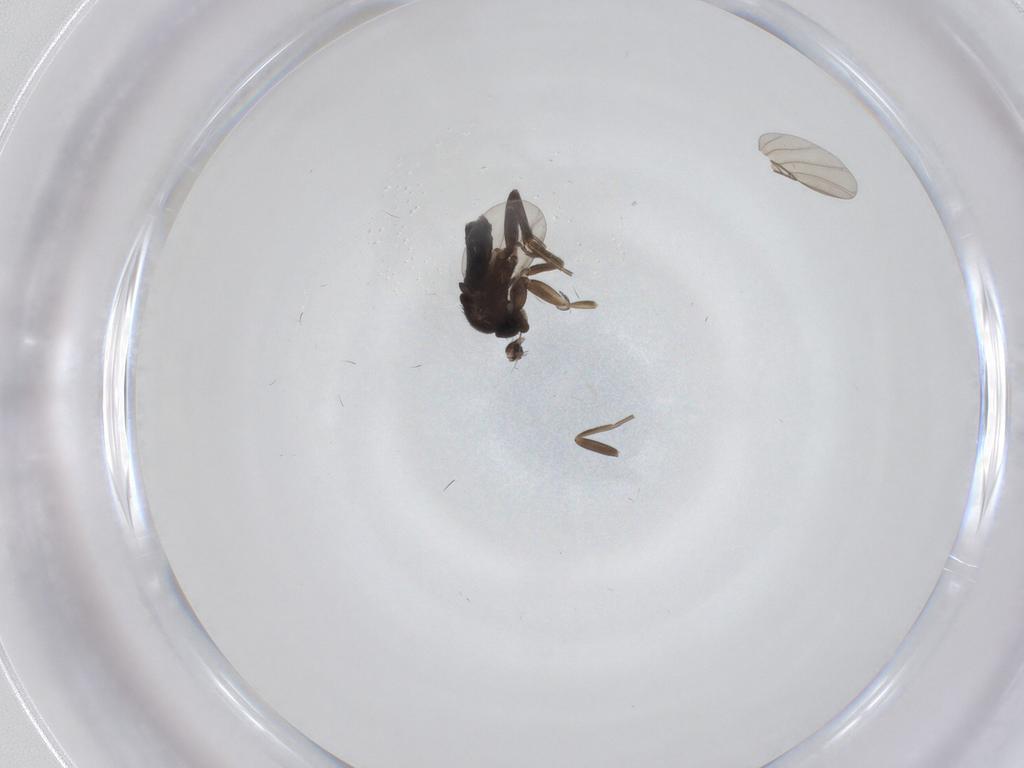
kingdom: Animalia
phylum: Arthropoda
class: Insecta
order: Diptera
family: Phoridae
